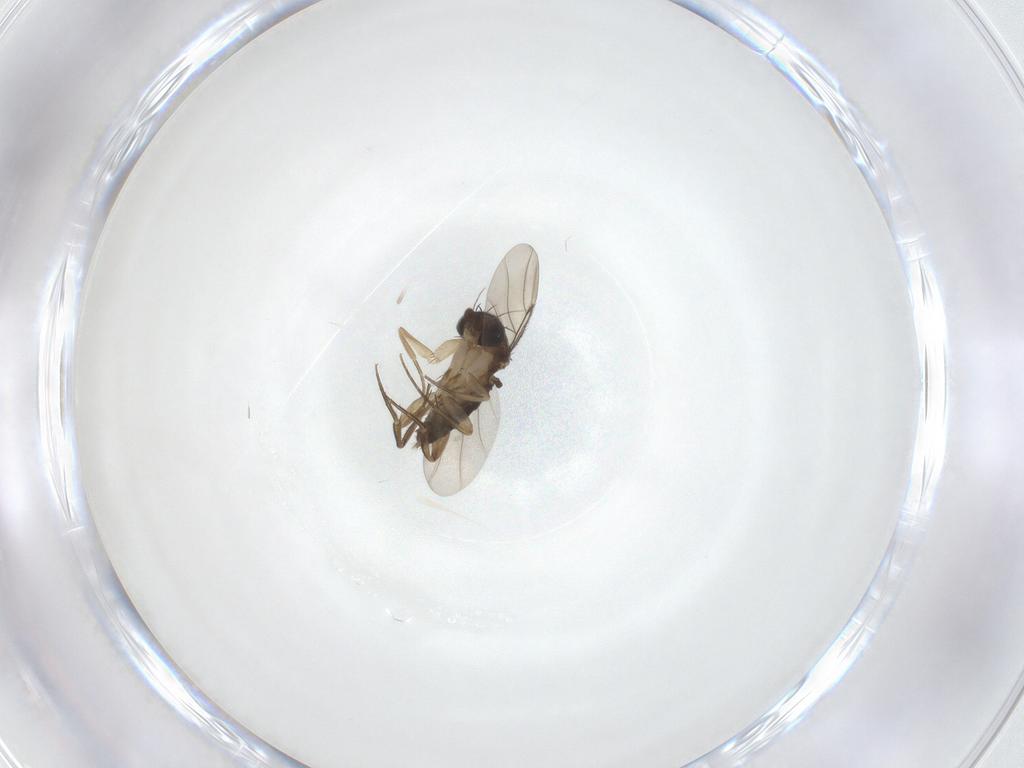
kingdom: Animalia
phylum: Arthropoda
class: Insecta
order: Diptera
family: Phoridae
